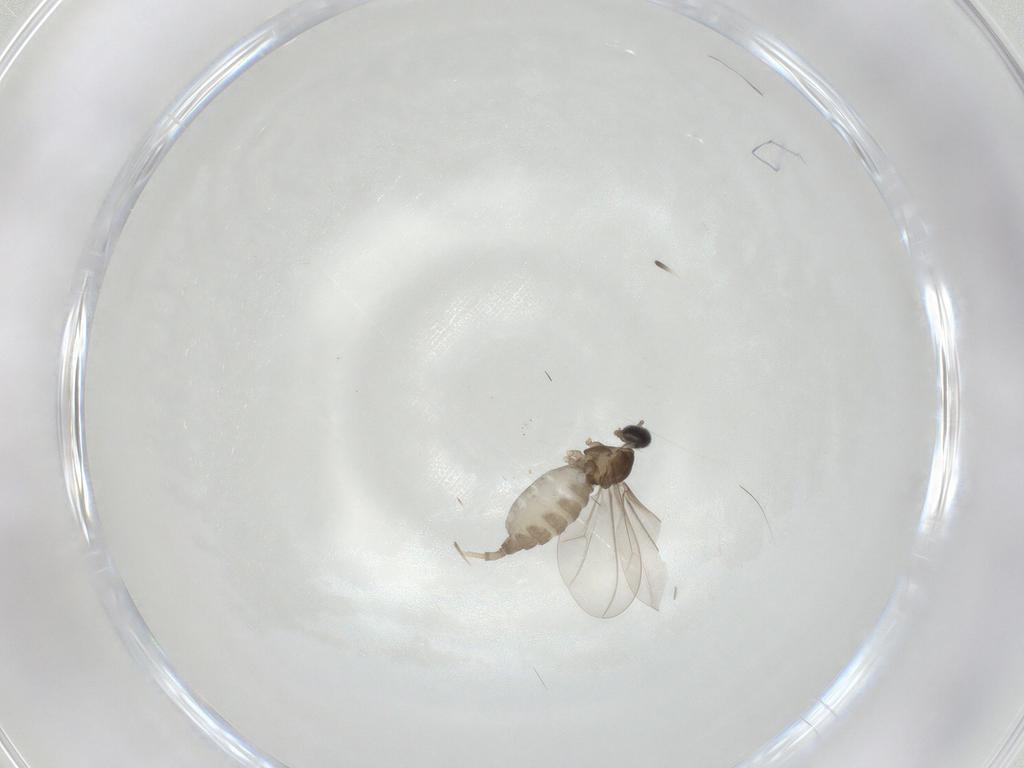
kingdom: Animalia
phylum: Arthropoda
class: Insecta
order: Diptera
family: Cecidomyiidae
